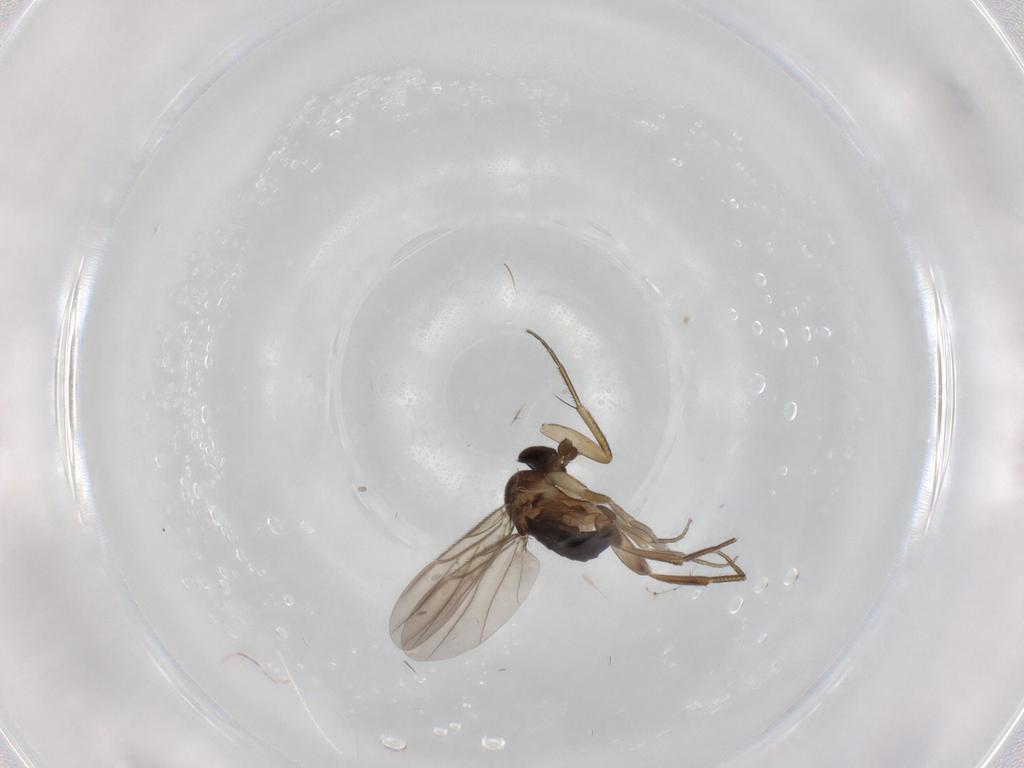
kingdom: Animalia
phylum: Arthropoda
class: Insecta
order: Diptera
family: Phoridae
